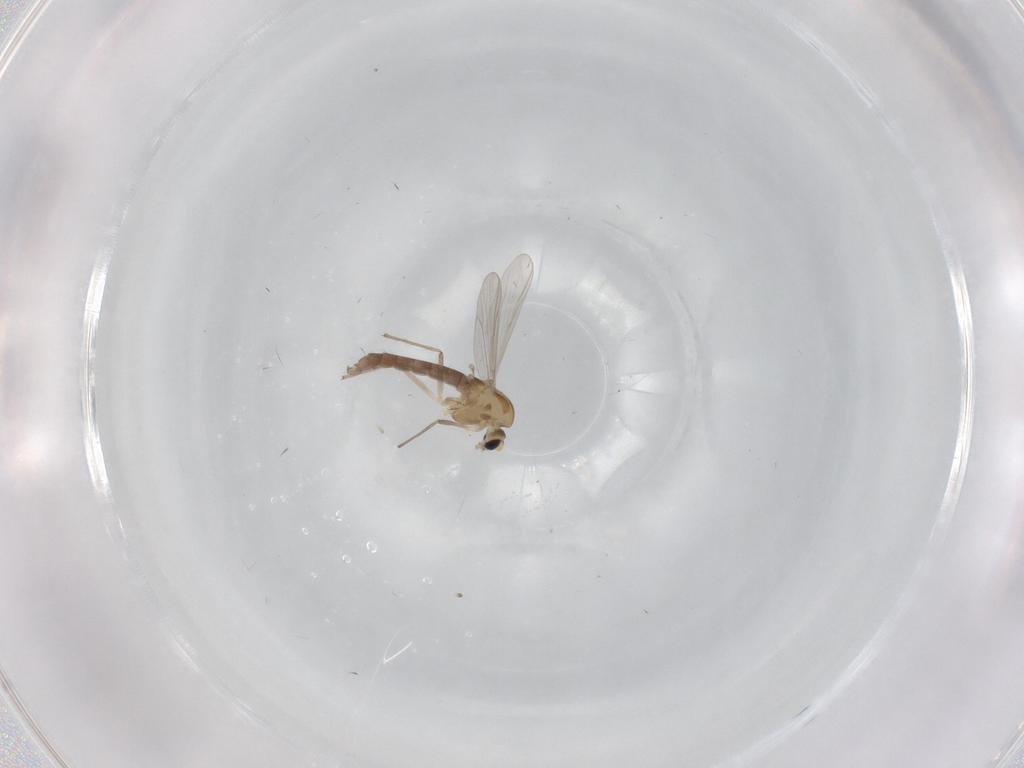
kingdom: Animalia
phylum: Arthropoda
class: Insecta
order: Diptera
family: Chironomidae
